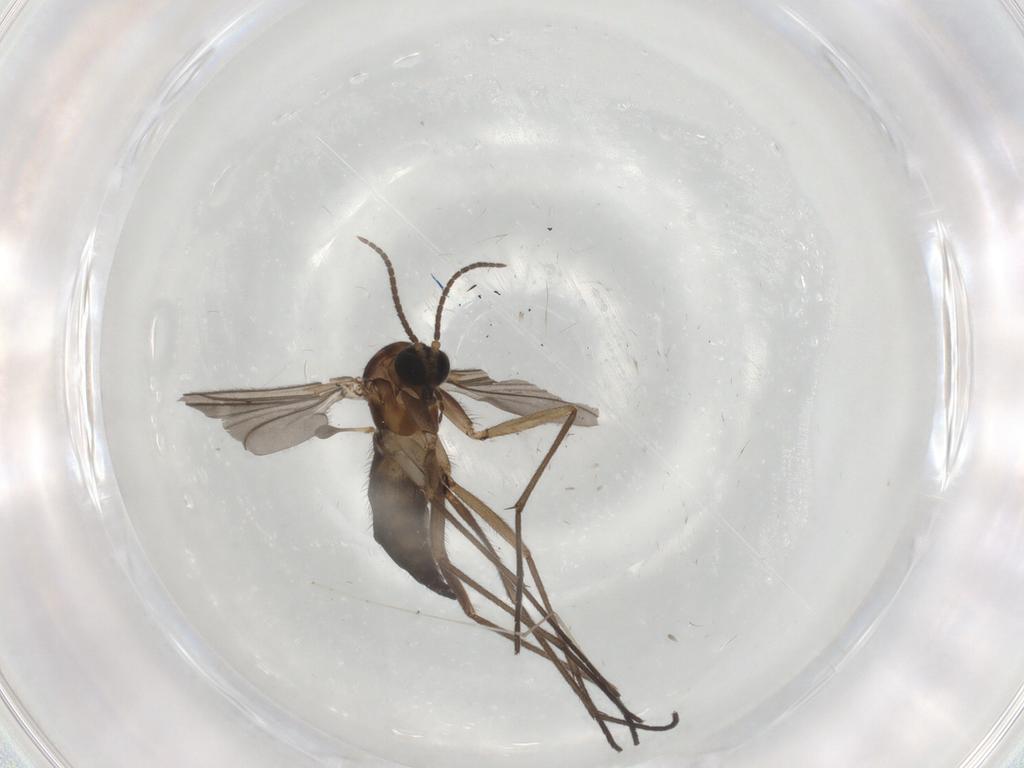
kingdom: Animalia
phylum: Arthropoda
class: Insecta
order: Diptera
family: Sciaridae
